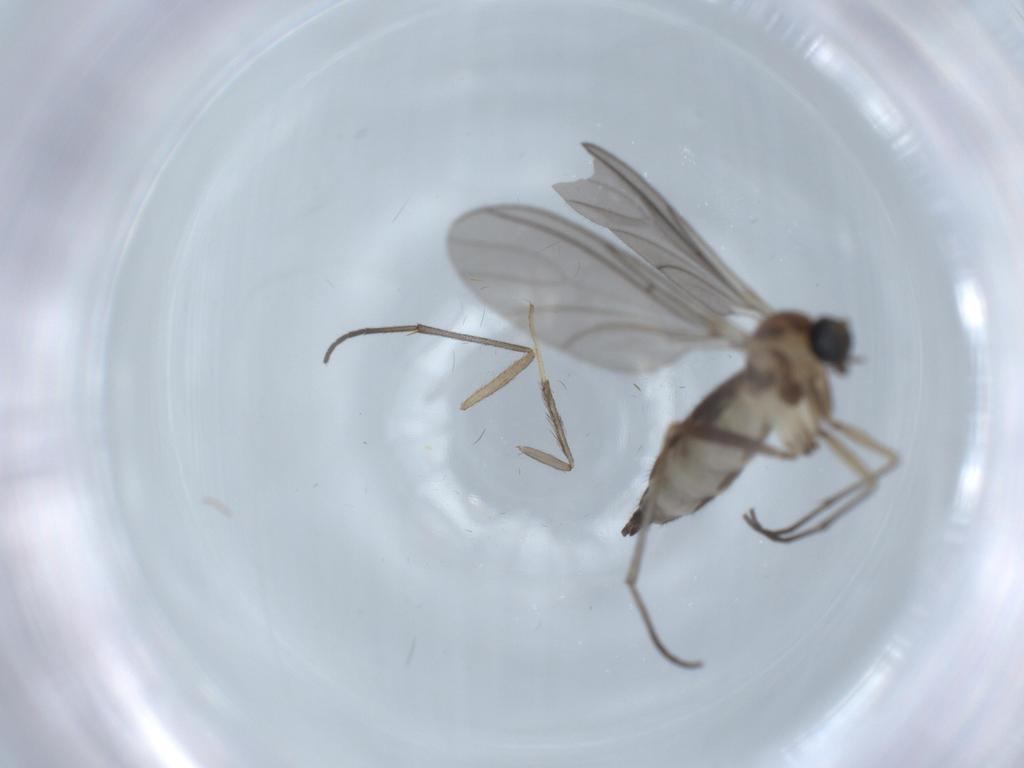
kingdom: Animalia
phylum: Arthropoda
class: Insecta
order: Diptera
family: Sciaridae
